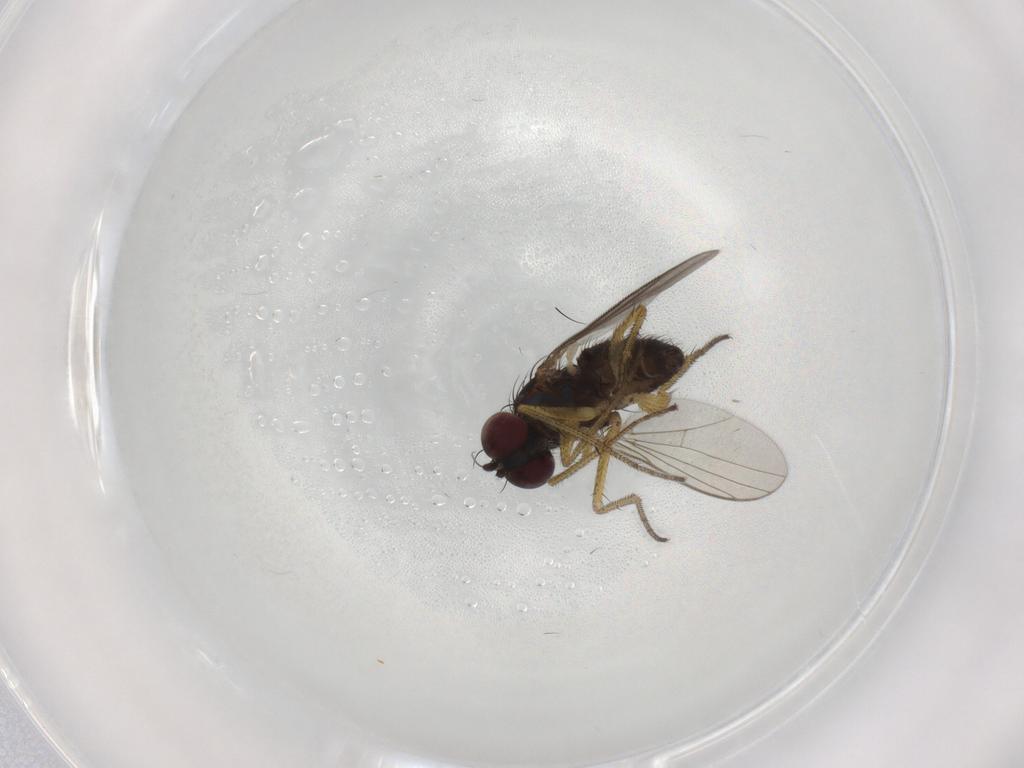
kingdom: Animalia
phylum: Arthropoda
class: Insecta
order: Diptera
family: Dolichopodidae
